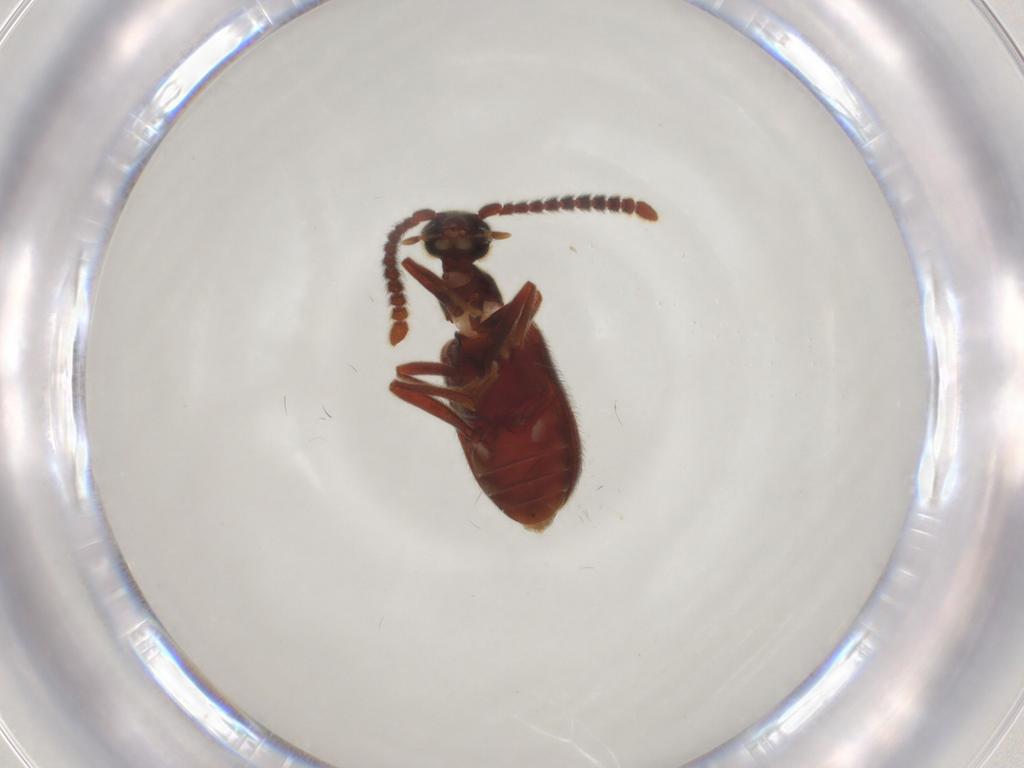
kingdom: Animalia
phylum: Arthropoda
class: Insecta
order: Coleoptera
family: Aderidae
